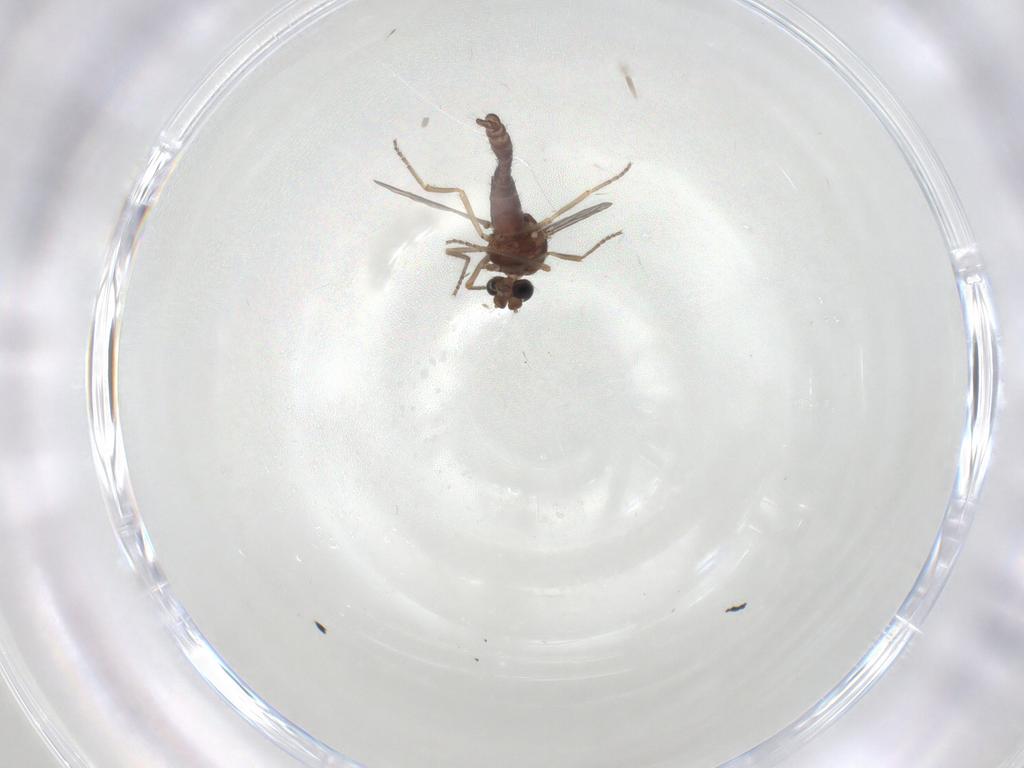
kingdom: Animalia
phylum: Arthropoda
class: Insecta
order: Diptera
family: Ceratopogonidae
